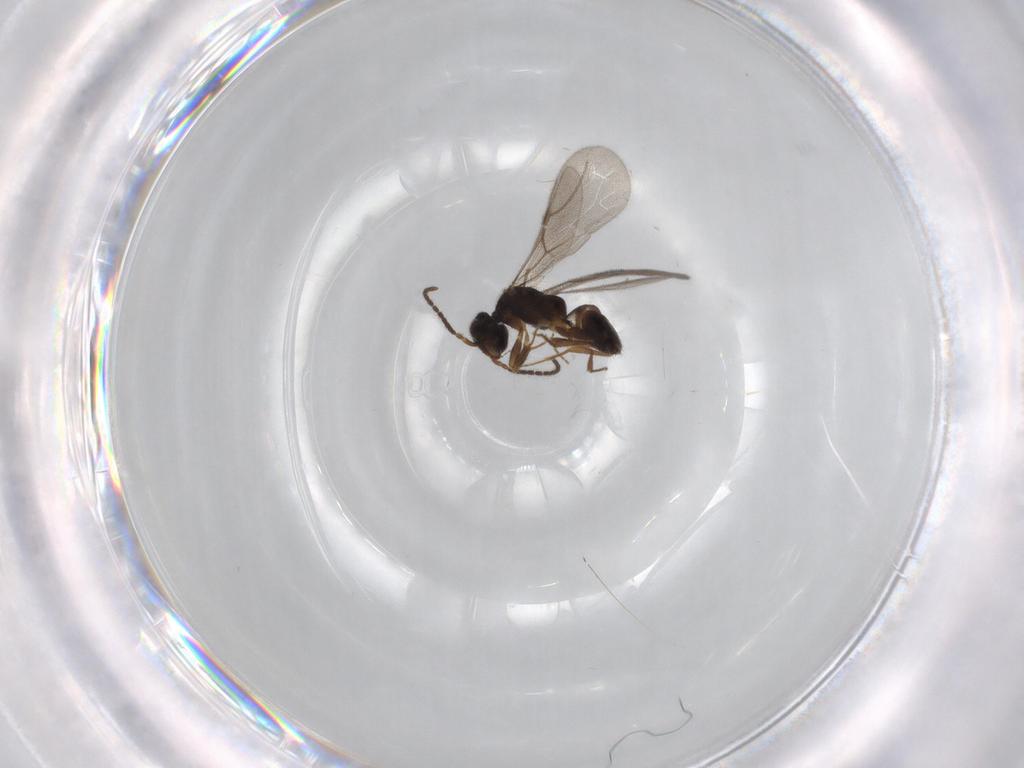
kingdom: Animalia
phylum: Arthropoda
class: Insecta
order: Hymenoptera
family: Bethylidae
